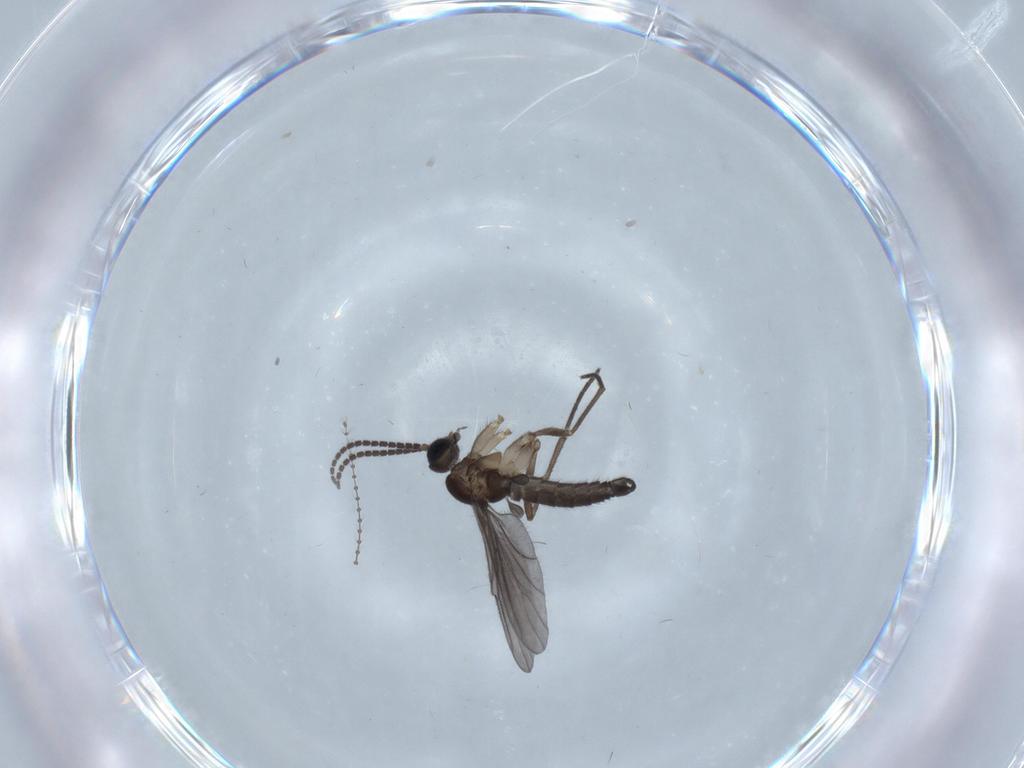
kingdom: Animalia
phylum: Arthropoda
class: Insecta
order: Diptera
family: Sciaridae
